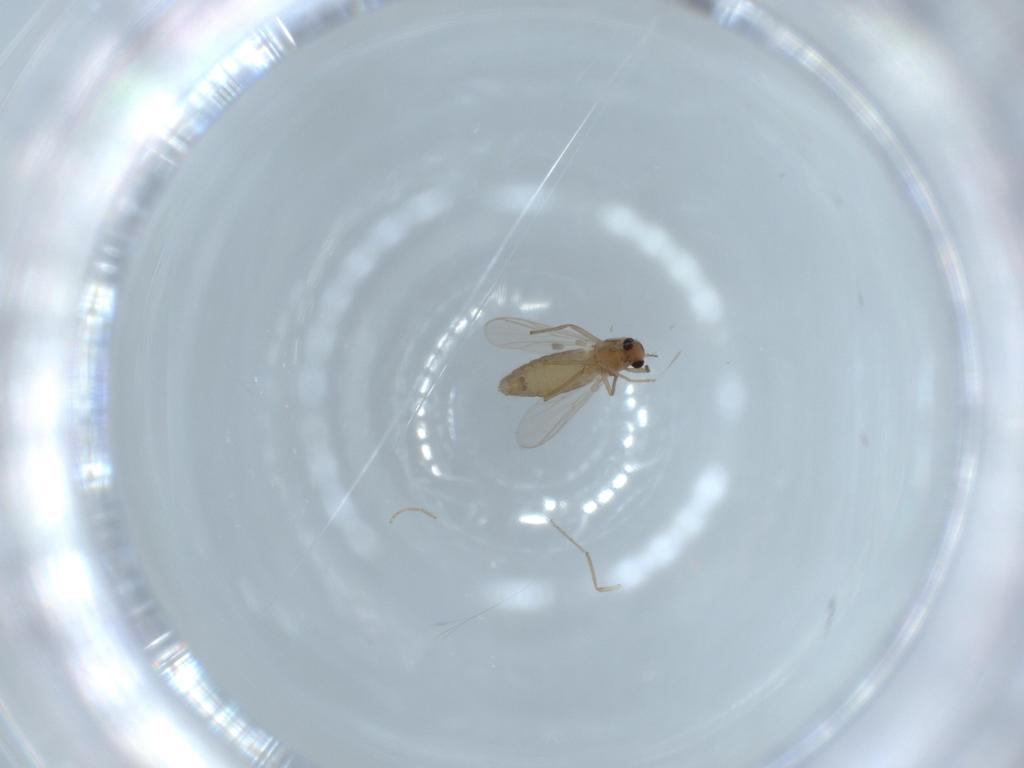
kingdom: Animalia
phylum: Arthropoda
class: Insecta
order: Diptera
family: Chironomidae
